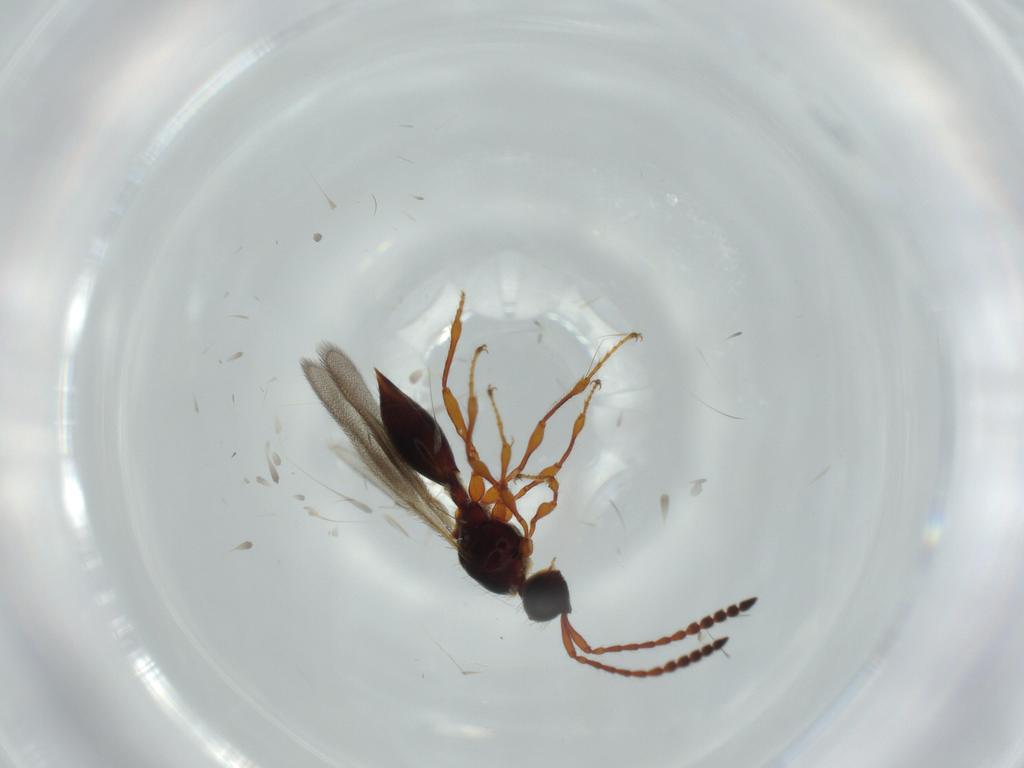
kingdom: Animalia
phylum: Arthropoda
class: Insecta
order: Hymenoptera
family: Diapriidae
